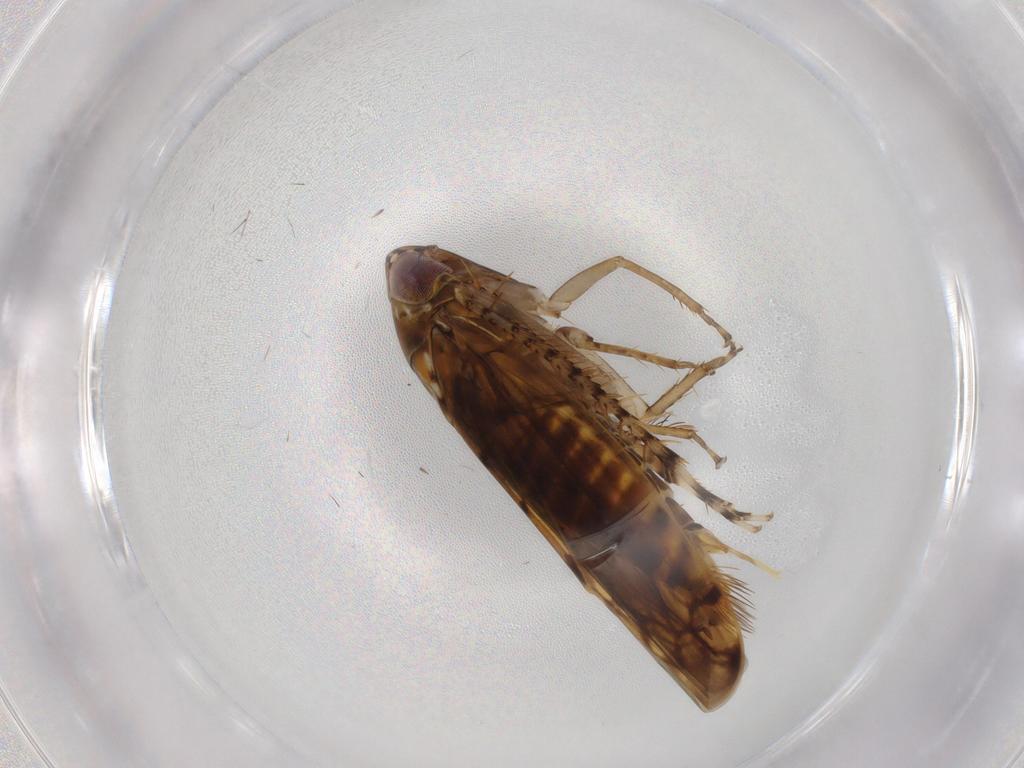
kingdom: Animalia
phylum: Arthropoda
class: Insecta
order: Hemiptera
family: Cicadellidae
